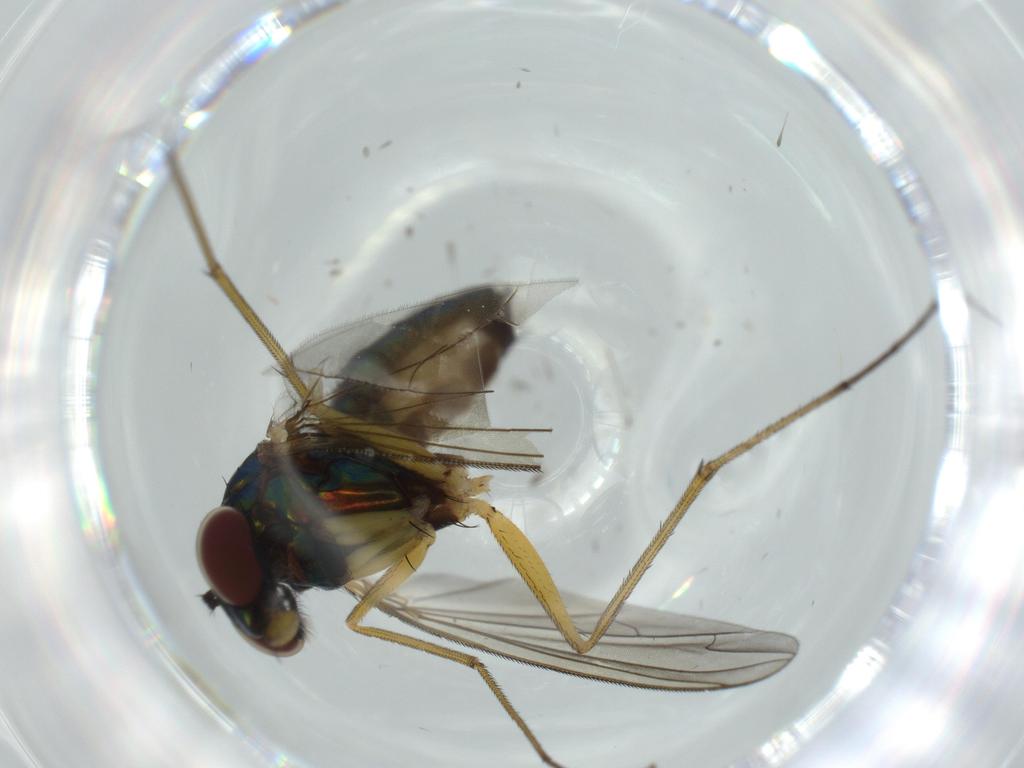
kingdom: Animalia
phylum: Arthropoda
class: Insecta
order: Diptera
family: Dolichopodidae
